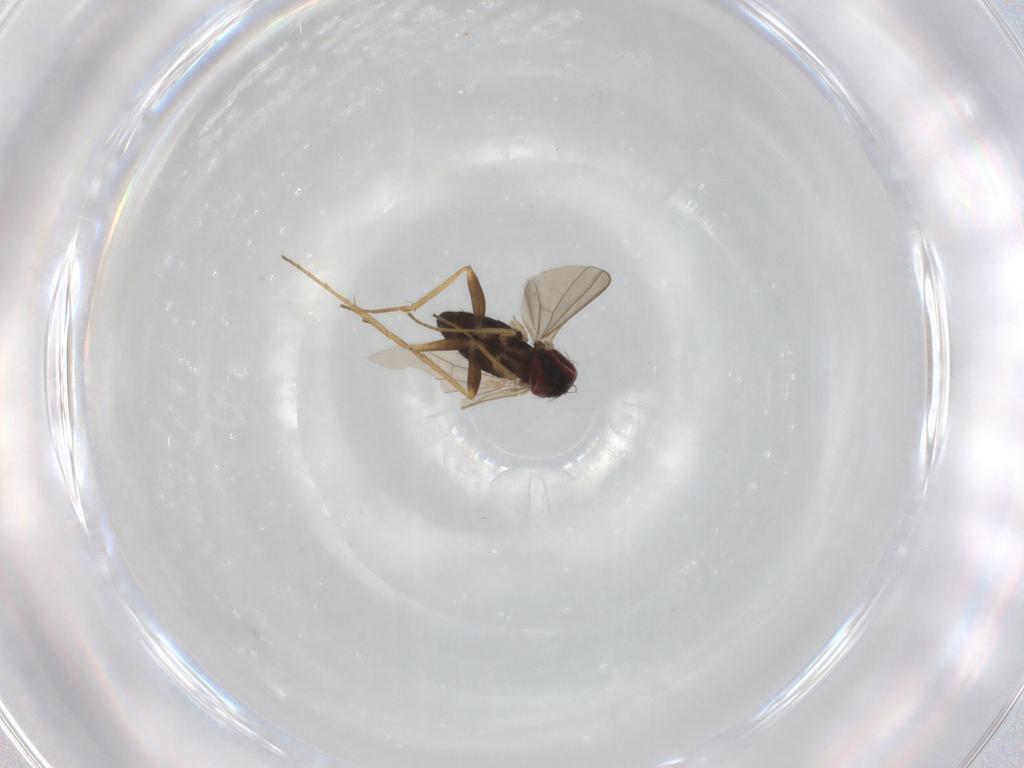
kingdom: Animalia
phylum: Arthropoda
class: Insecta
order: Diptera
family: Dolichopodidae
